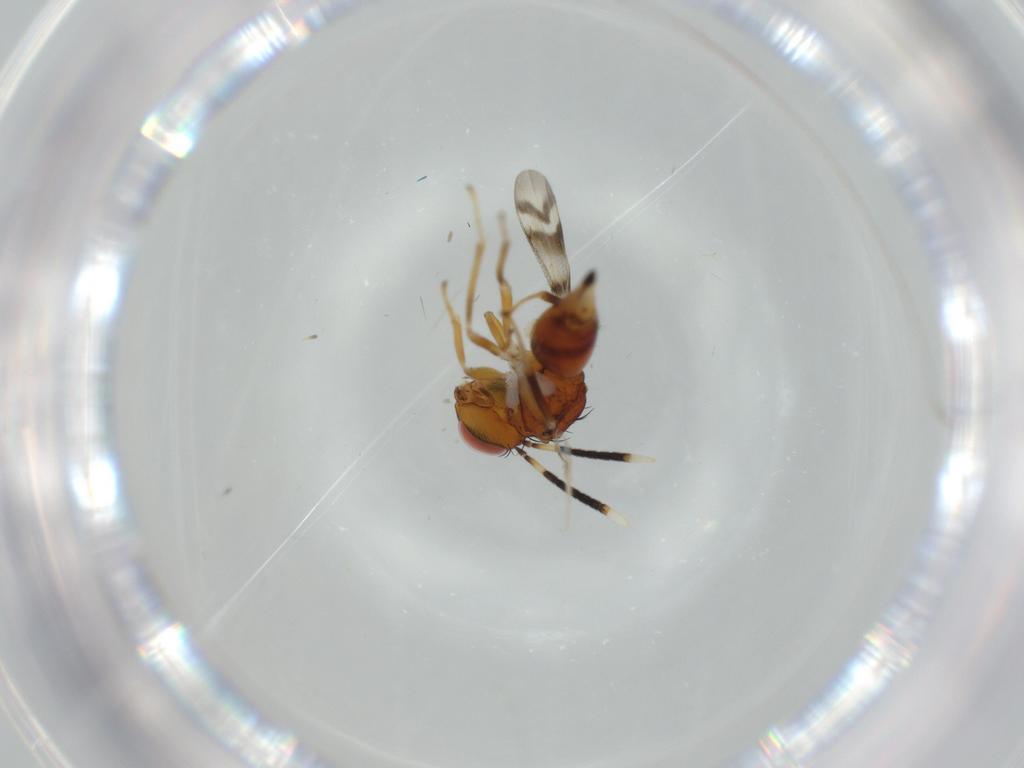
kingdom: Animalia
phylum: Arthropoda
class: Insecta
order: Hymenoptera
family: Diparidae
